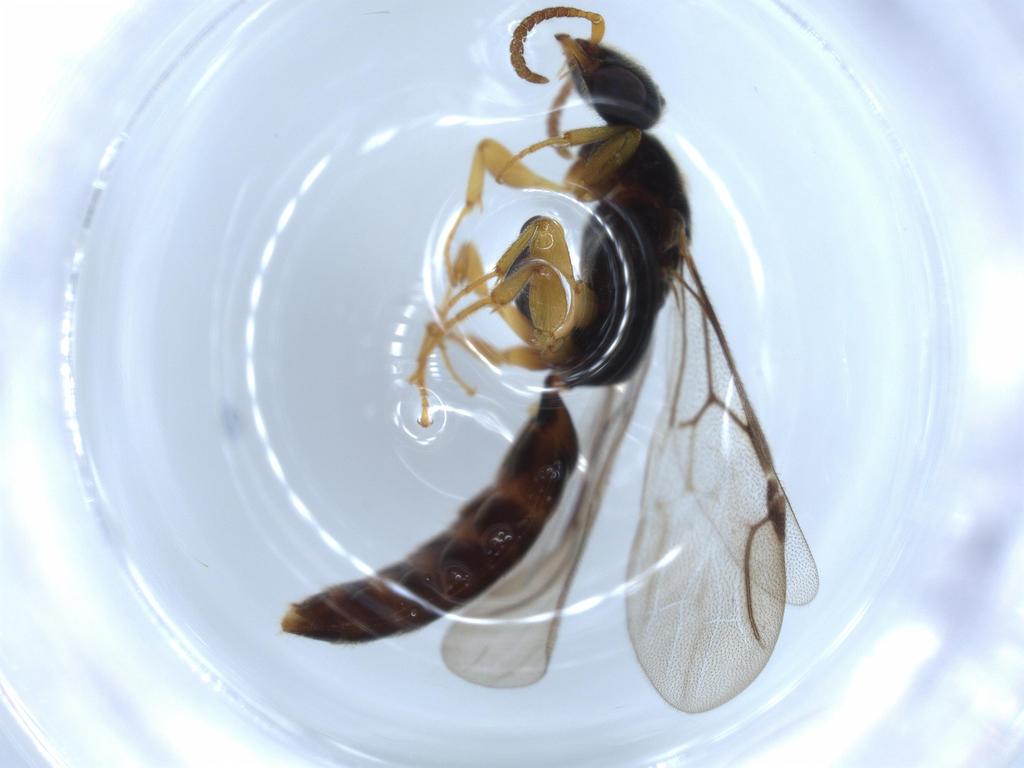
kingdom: Animalia
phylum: Arthropoda
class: Insecta
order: Hymenoptera
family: Bethylidae
